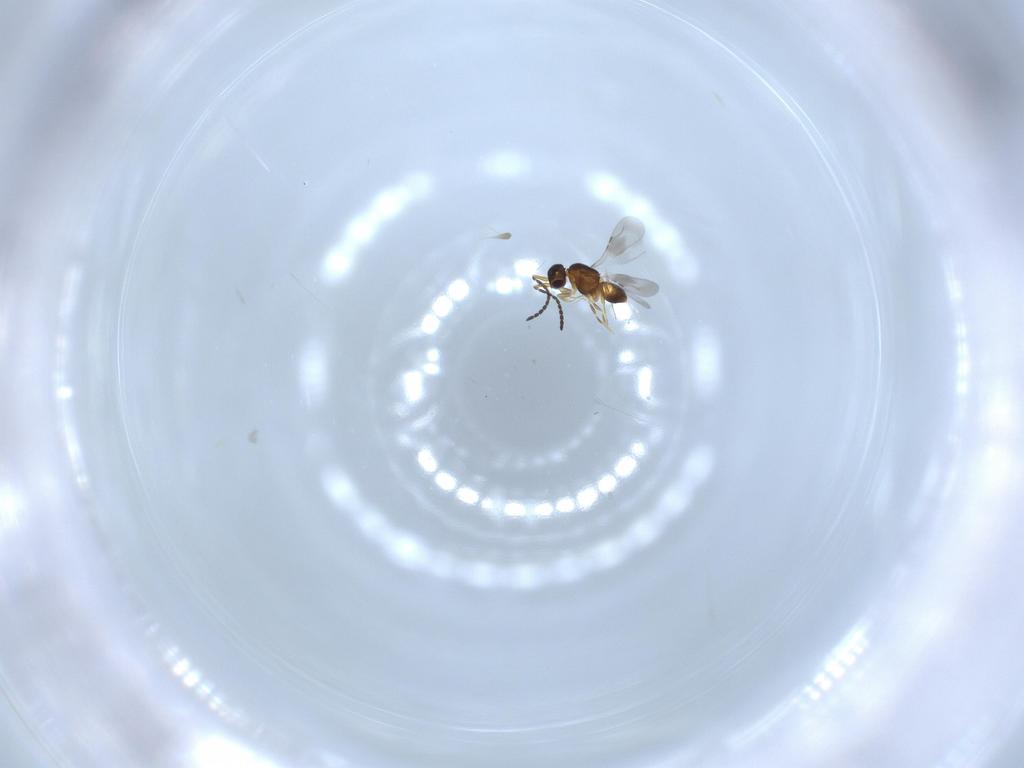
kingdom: Animalia
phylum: Arthropoda
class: Insecta
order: Hymenoptera
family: Ceraphronidae
